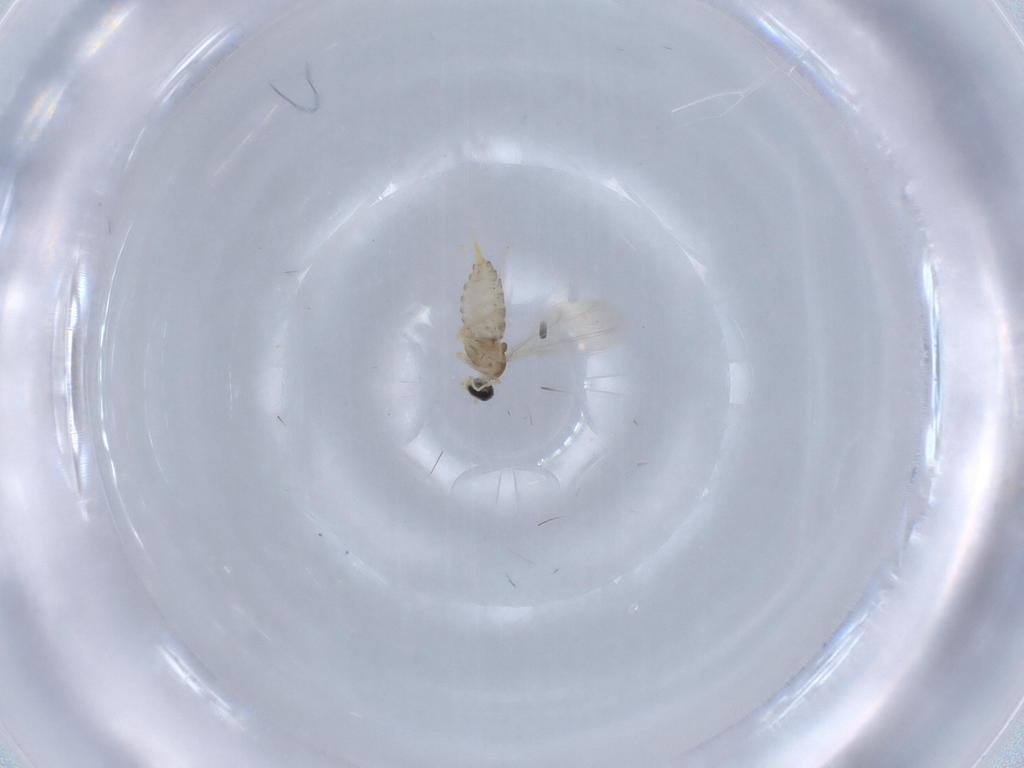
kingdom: Animalia
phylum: Arthropoda
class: Insecta
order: Diptera
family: Cecidomyiidae
